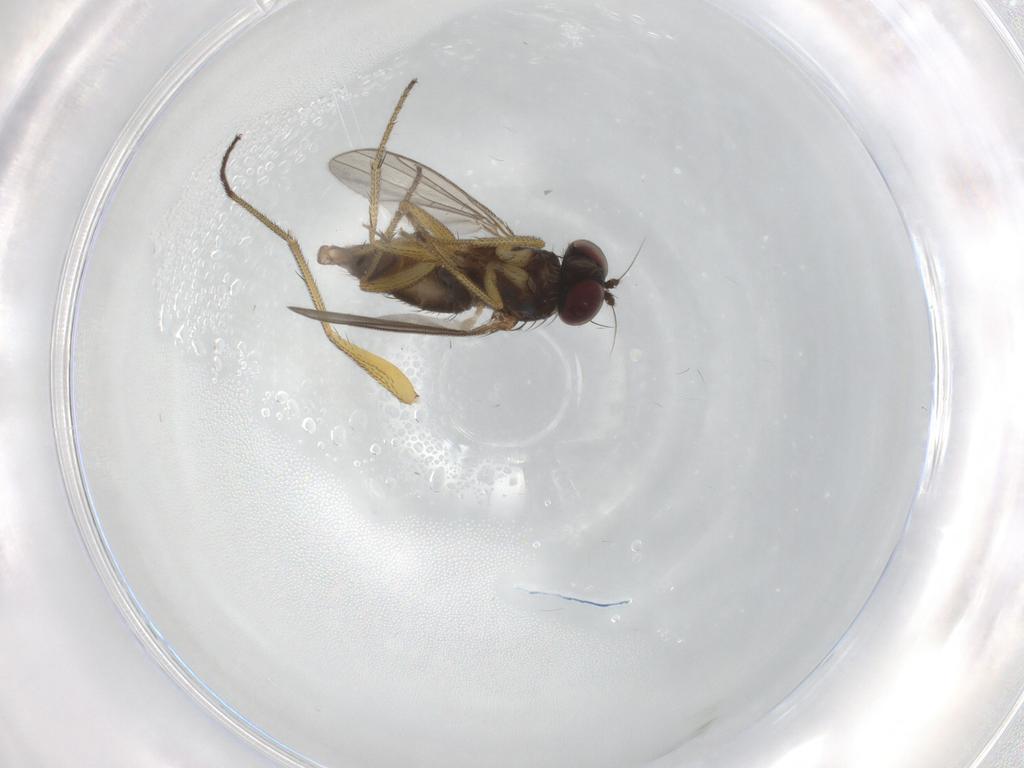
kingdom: Animalia
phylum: Arthropoda
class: Insecta
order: Diptera
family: Dolichopodidae
